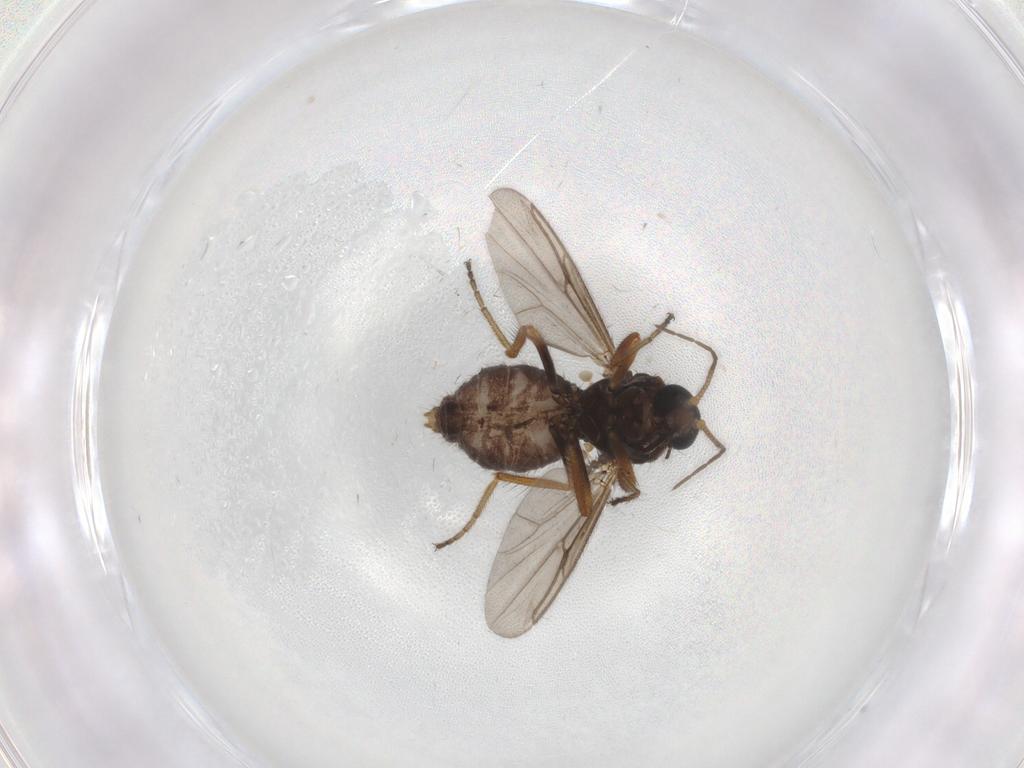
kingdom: Animalia
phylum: Arthropoda
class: Insecta
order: Diptera
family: Ceratopogonidae
